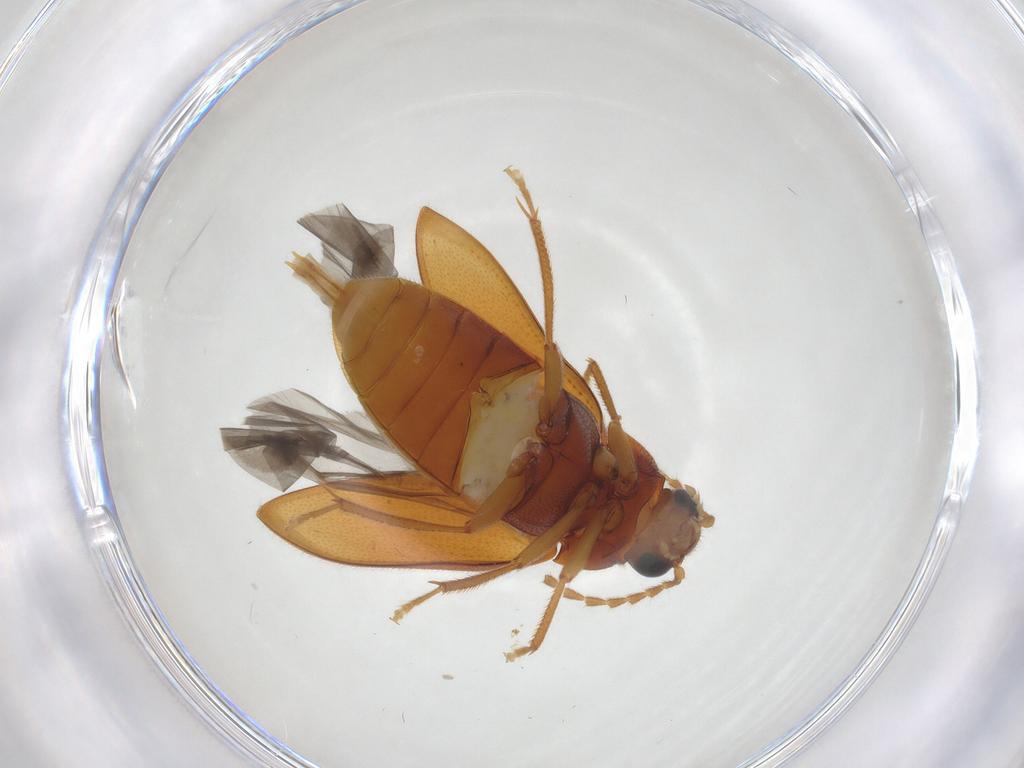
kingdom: Animalia
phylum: Arthropoda
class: Insecta
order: Coleoptera
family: Ptilodactylidae
